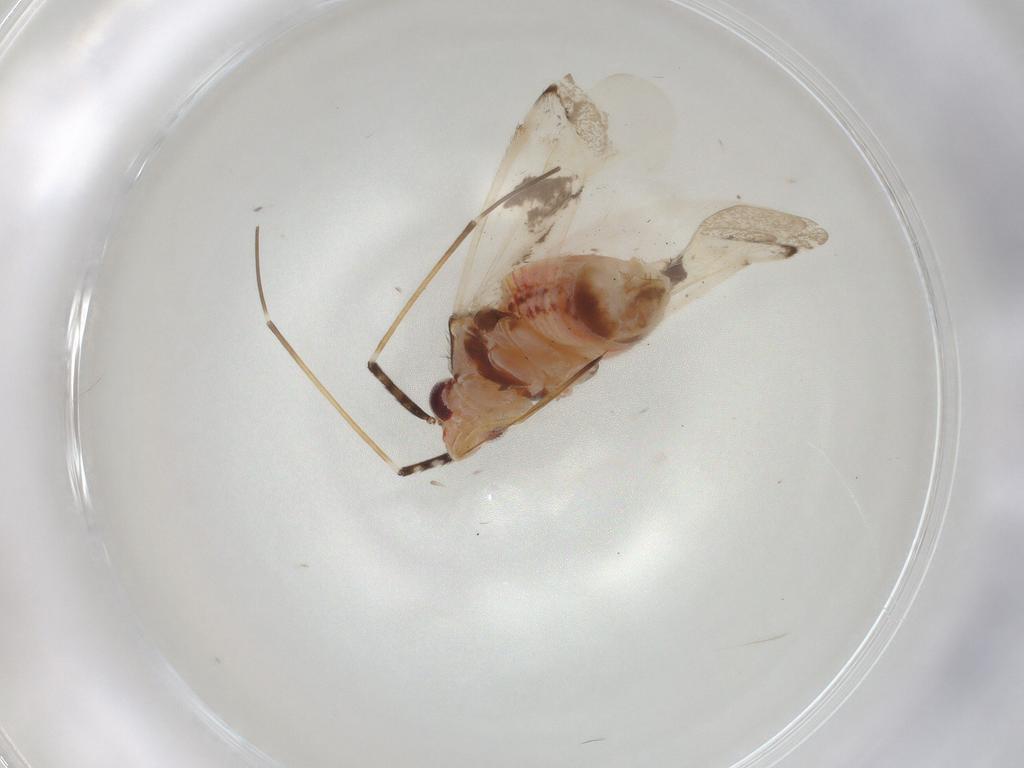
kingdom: Animalia
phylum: Arthropoda
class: Insecta
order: Hemiptera
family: Miridae
